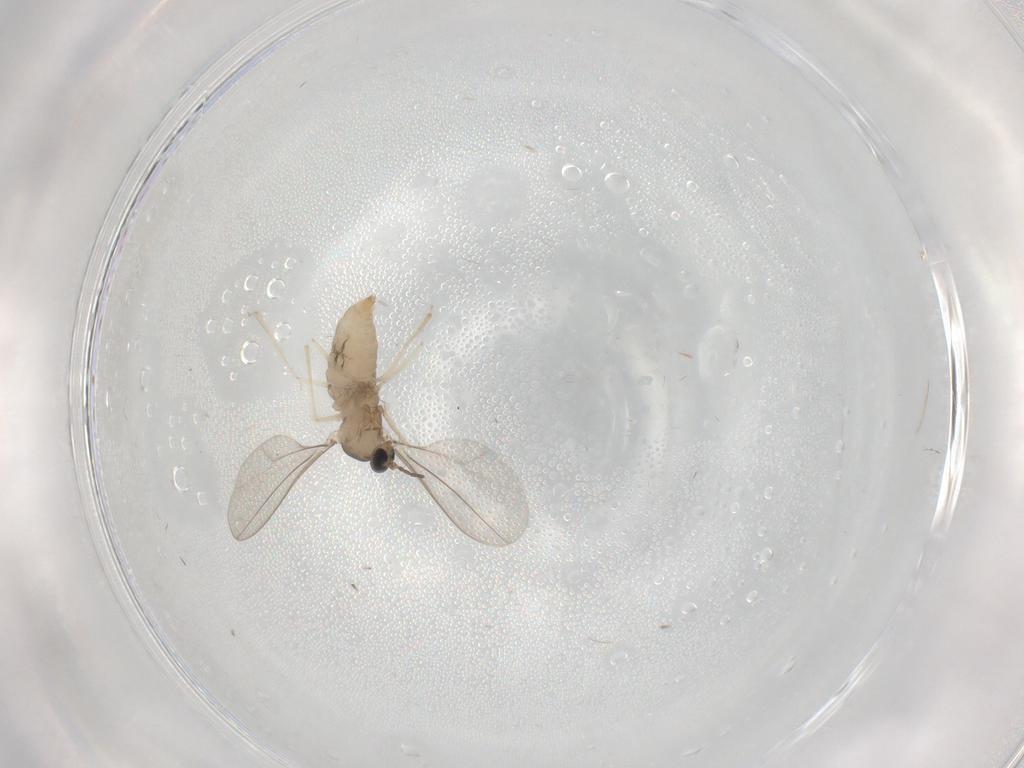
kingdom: Animalia
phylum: Arthropoda
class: Insecta
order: Diptera
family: Cecidomyiidae
